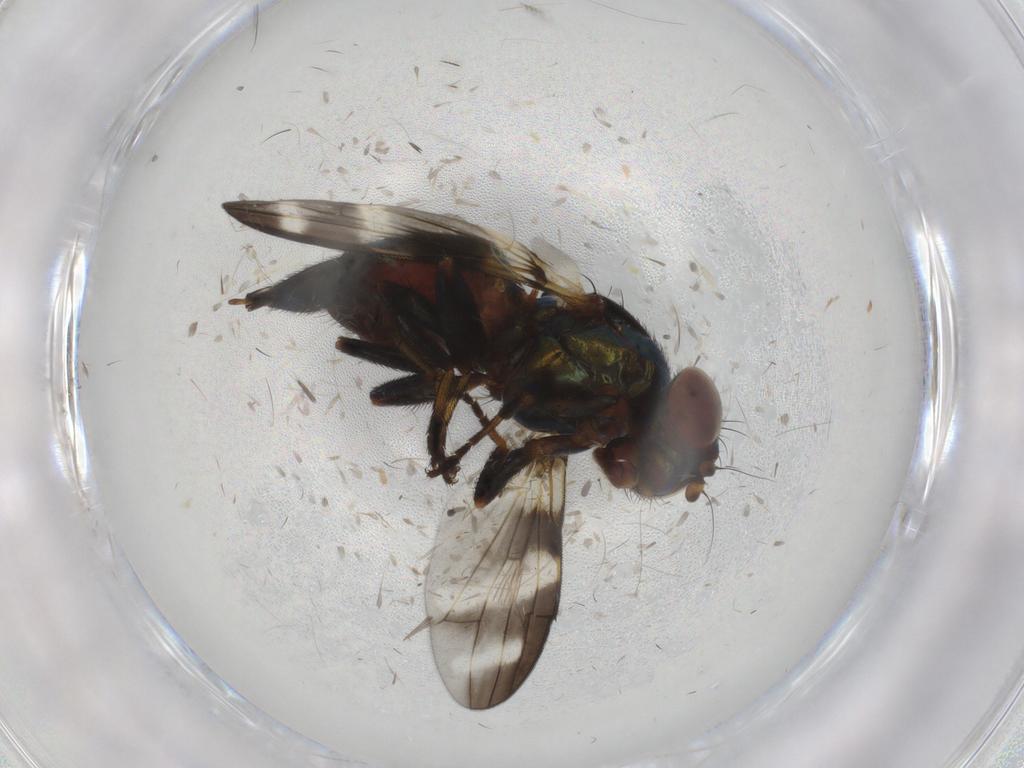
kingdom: Animalia
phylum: Arthropoda
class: Insecta
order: Diptera
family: Ulidiidae
